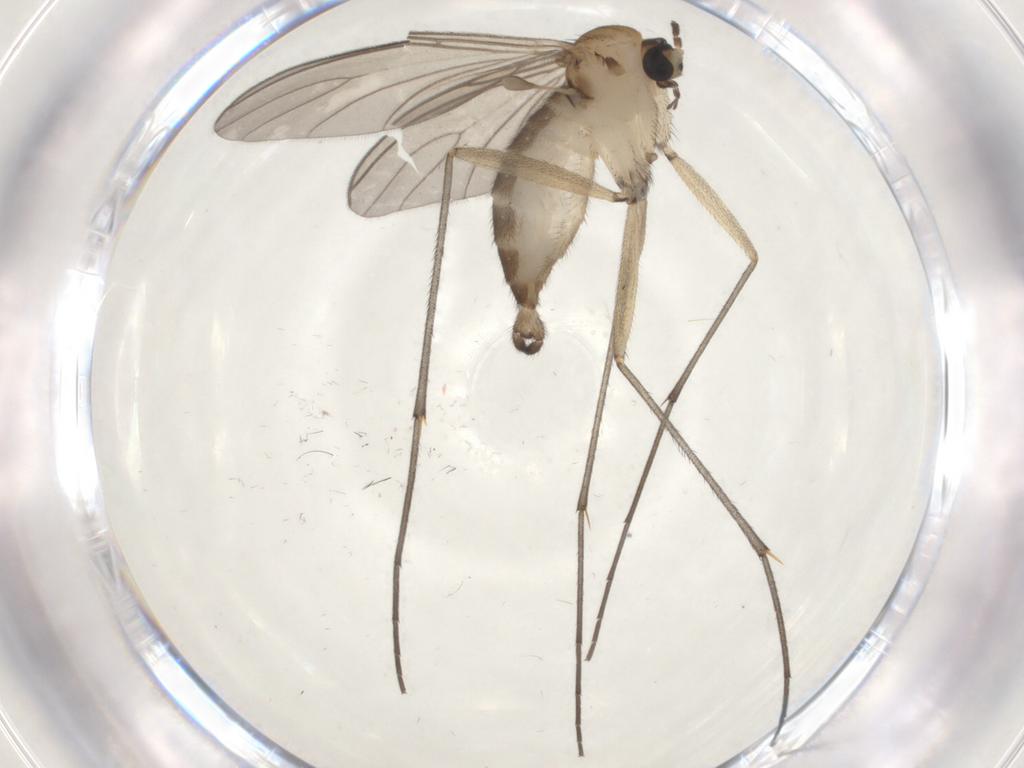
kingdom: Animalia
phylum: Arthropoda
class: Insecta
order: Diptera
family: Sciaridae
